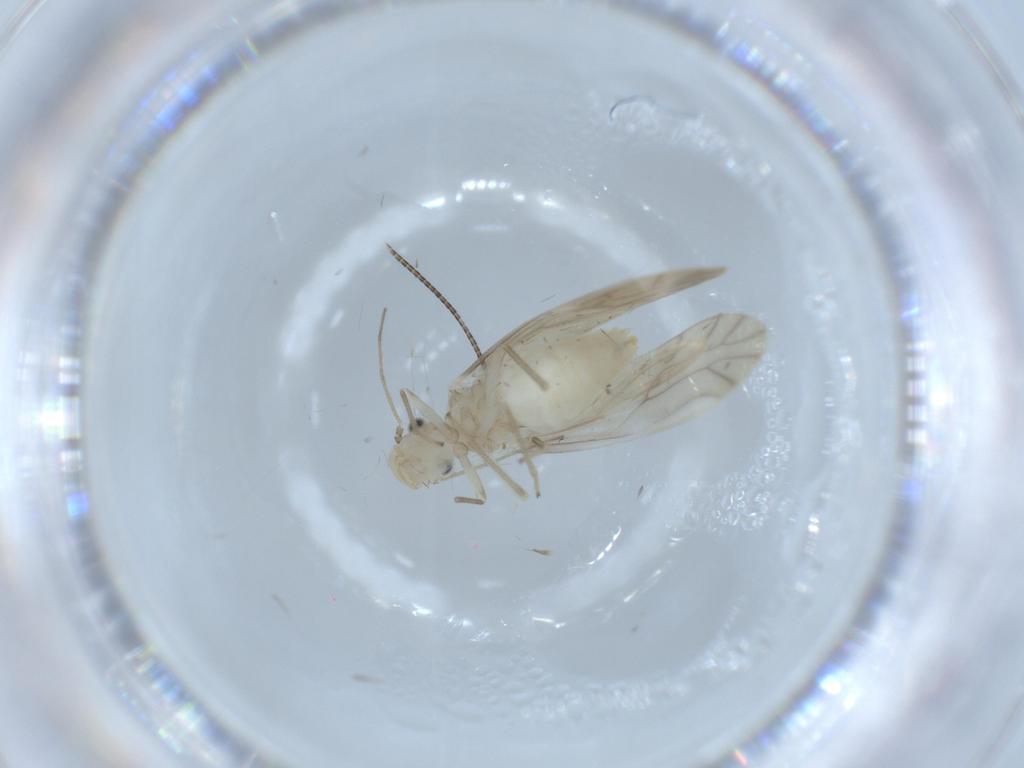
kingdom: Animalia
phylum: Arthropoda
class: Insecta
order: Psocodea
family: Caeciliusidae
